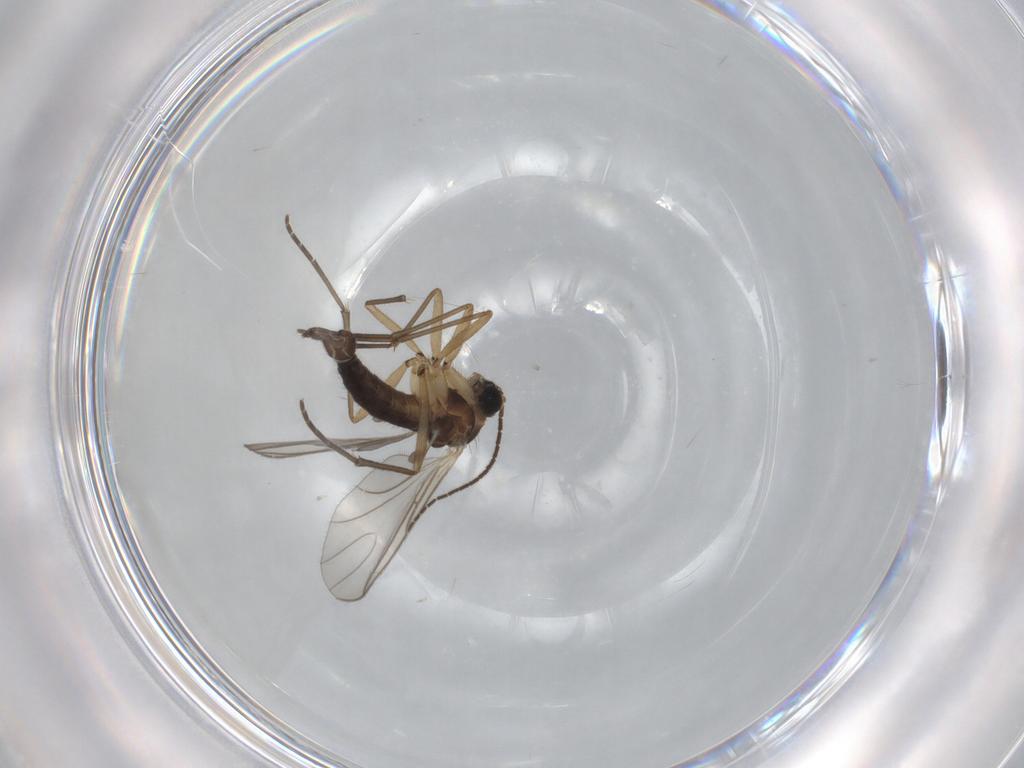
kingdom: Animalia
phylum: Arthropoda
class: Insecta
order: Diptera
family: Sciaridae
